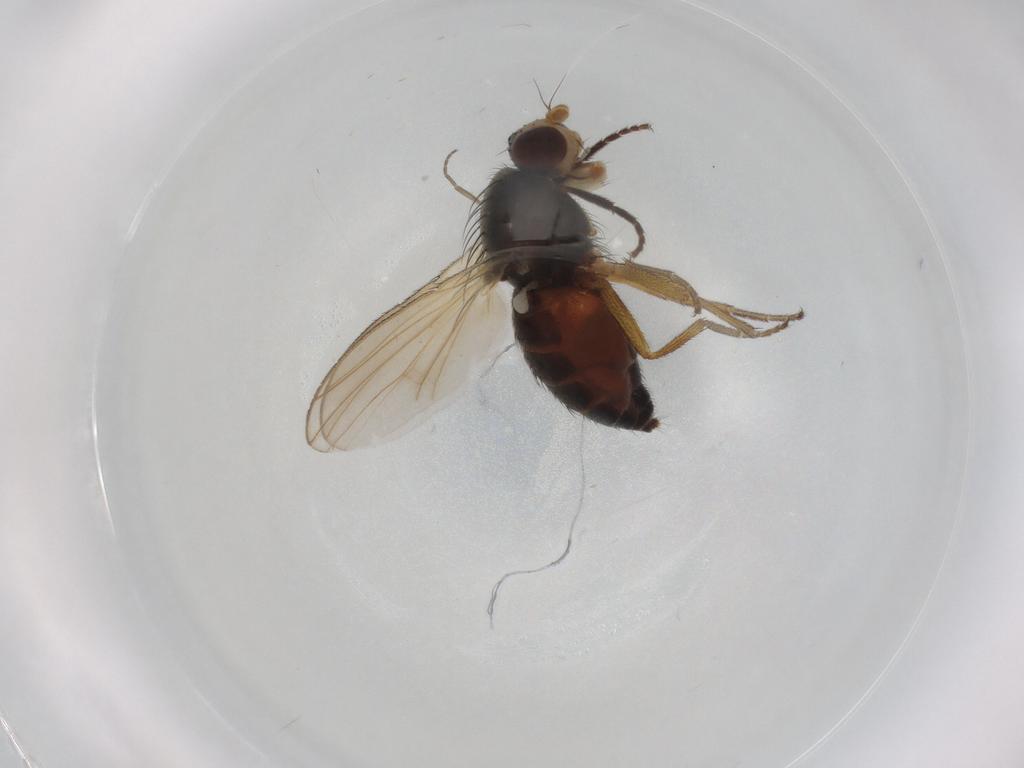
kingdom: Animalia
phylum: Arthropoda
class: Insecta
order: Diptera
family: Heleomyzidae
